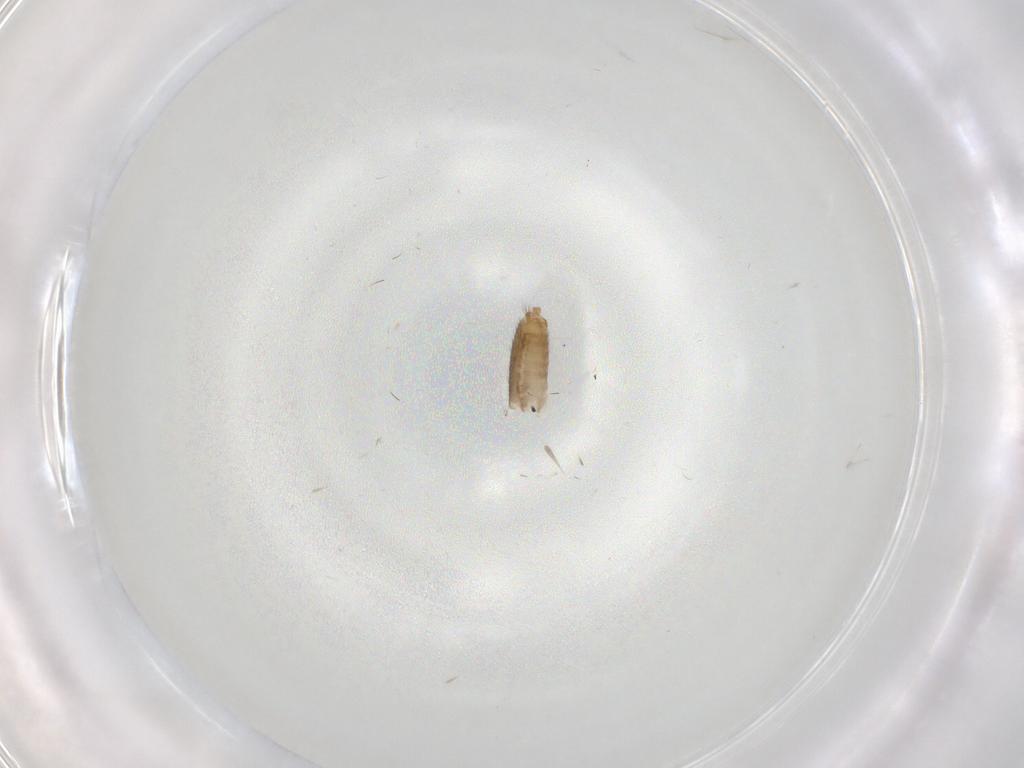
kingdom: Animalia
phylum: Arthropoda
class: Insecta
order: Diptera
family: Chironomidae
